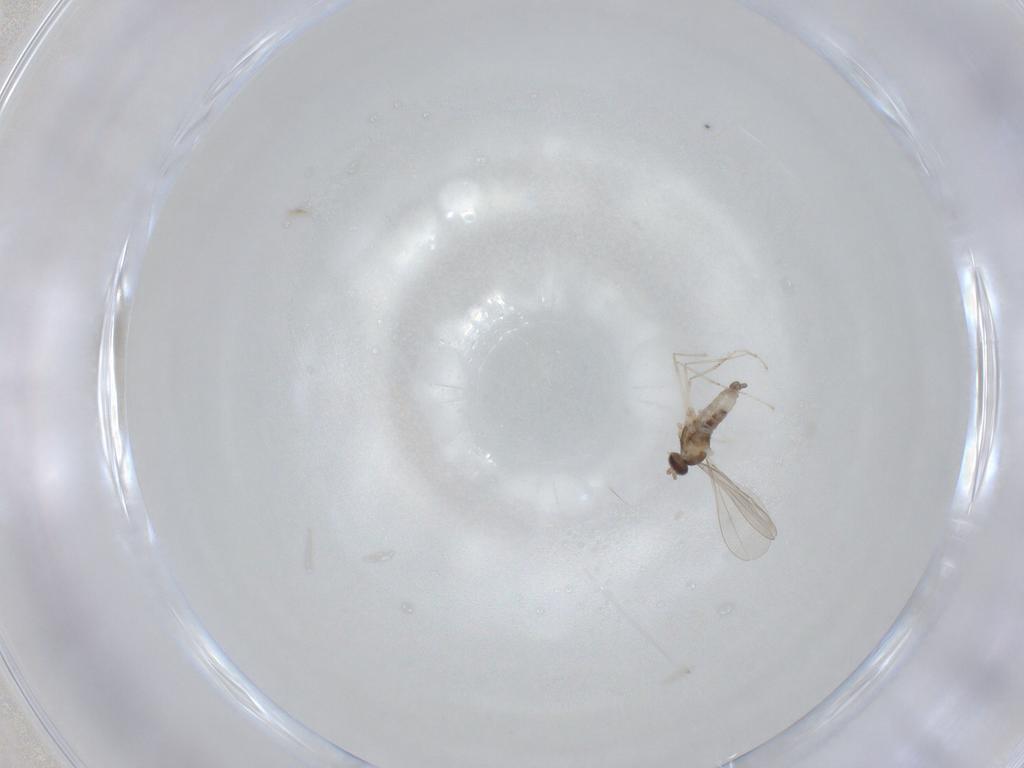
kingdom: Animalia
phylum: Arthropoda
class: Insecta
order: Diptera
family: Cecidomyiidae
